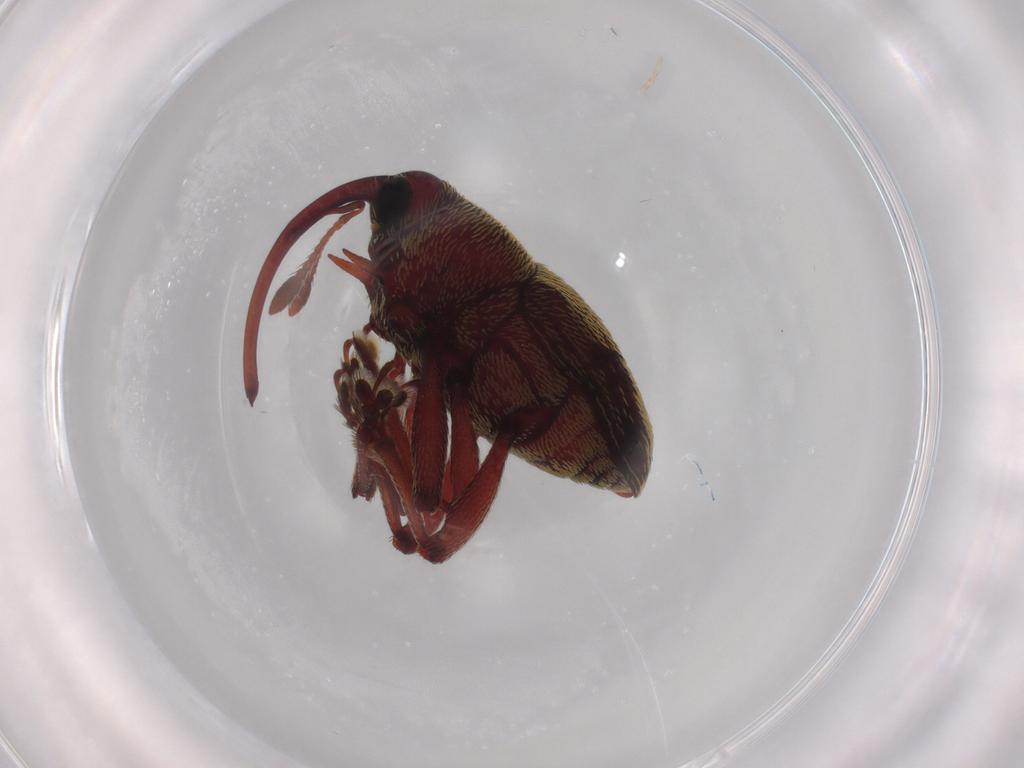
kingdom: Animalia
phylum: Arthropoda
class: Insecta
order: Coleoptera
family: Curculionidae
